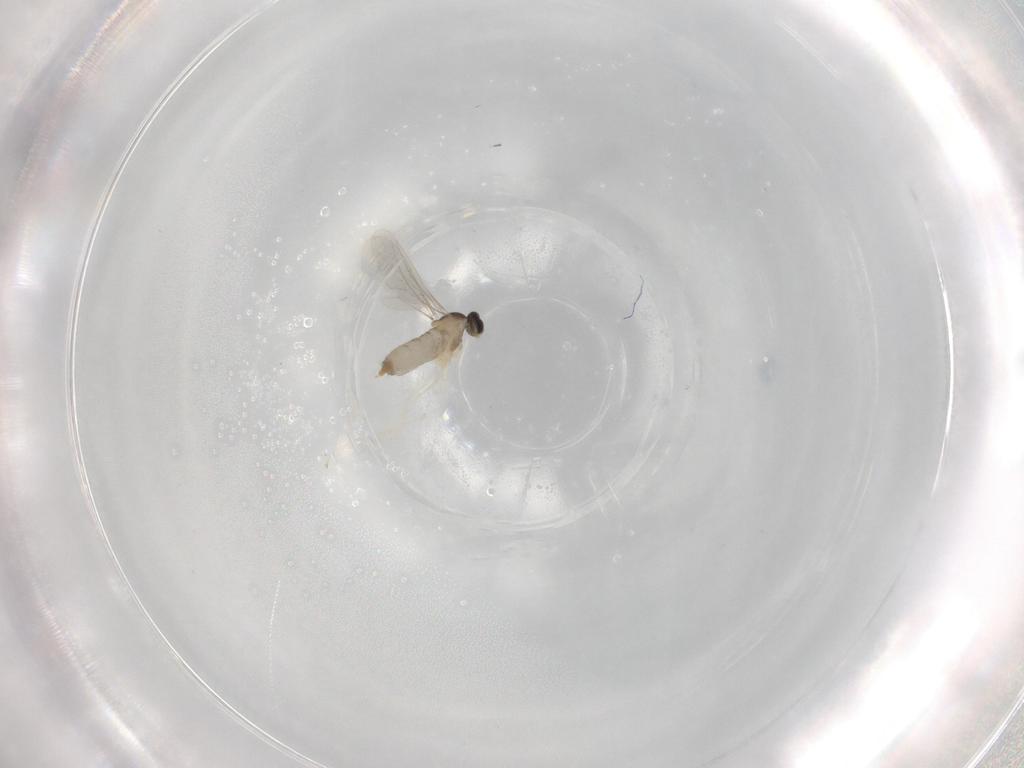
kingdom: Animalia
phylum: Arthropoda
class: Insecta
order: Diptera
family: Cecidomyiidae
